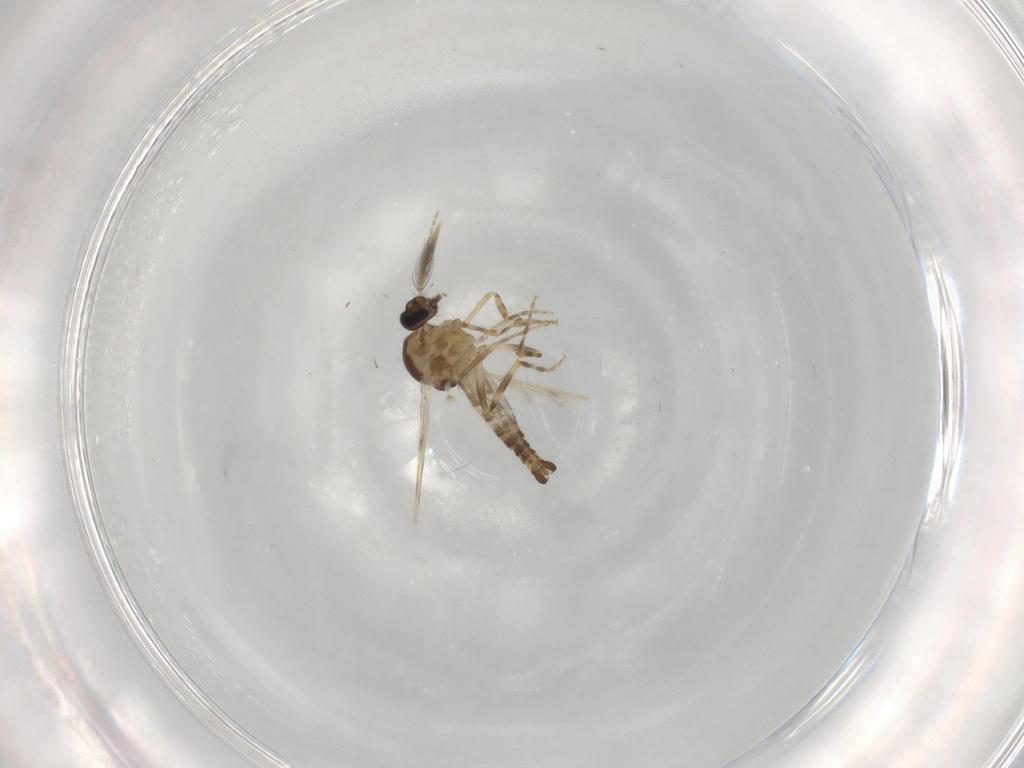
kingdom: Animalia
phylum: Arthropoda
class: Insecta
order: Diptera
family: Ceratopogonidae
